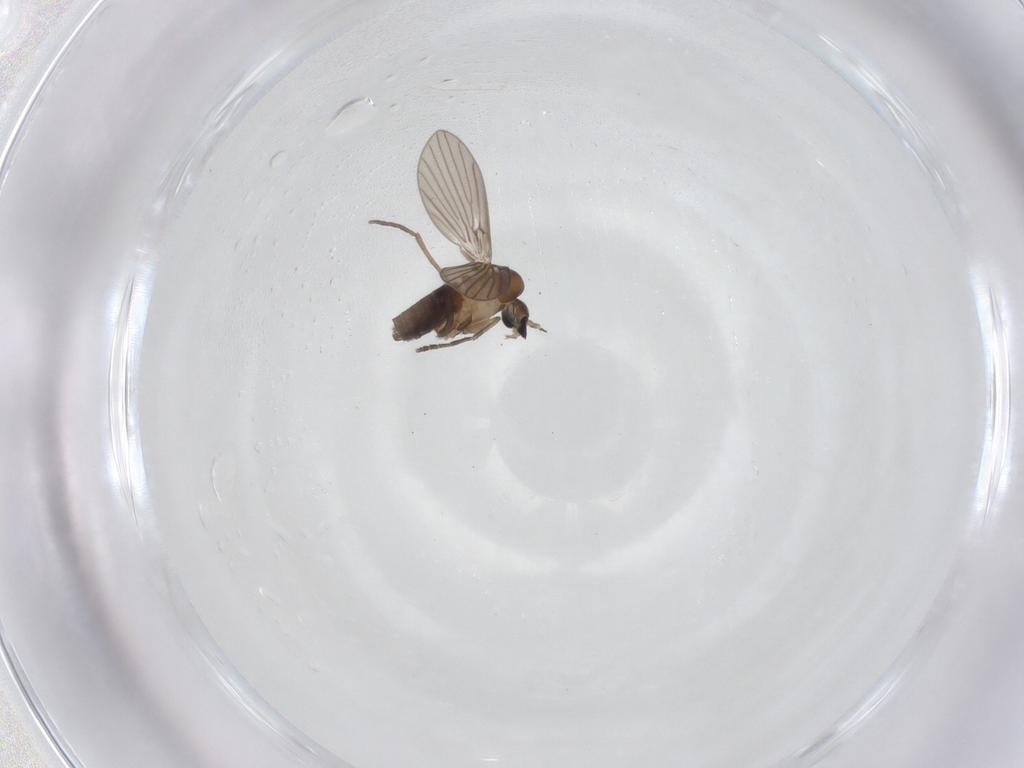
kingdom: Animalia
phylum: Arthropoda
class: Insecta
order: Diptera
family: Psychodidae
